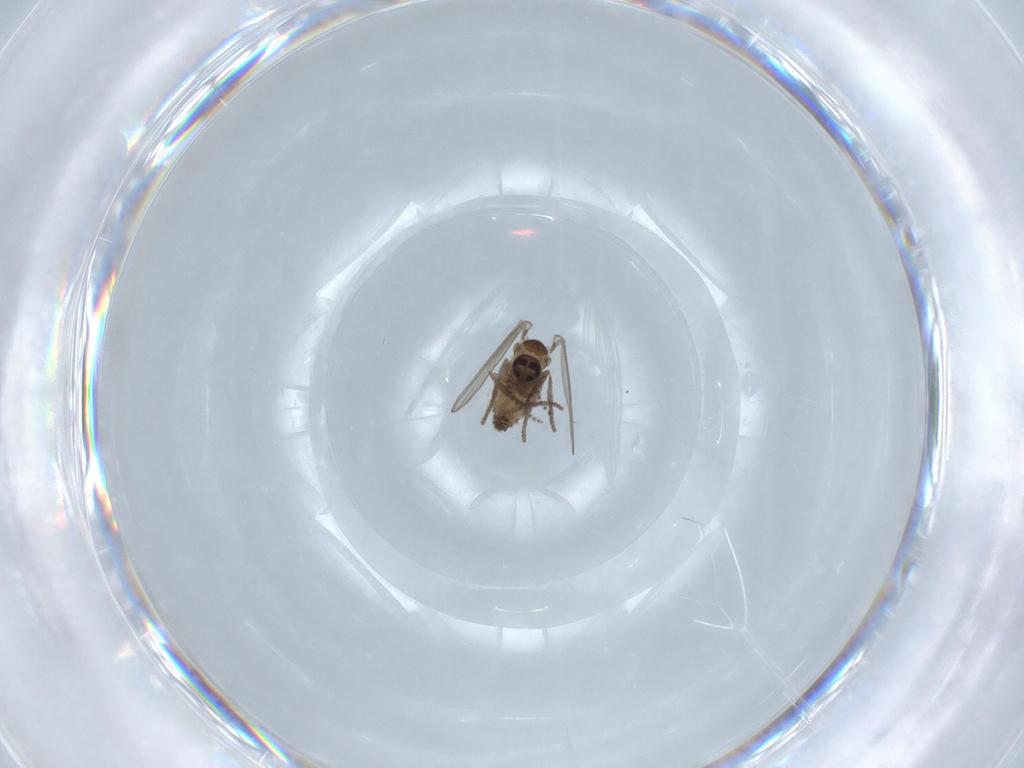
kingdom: Animalia
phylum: Arthropoda
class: Insecta
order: Diptera
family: Psychodidae
